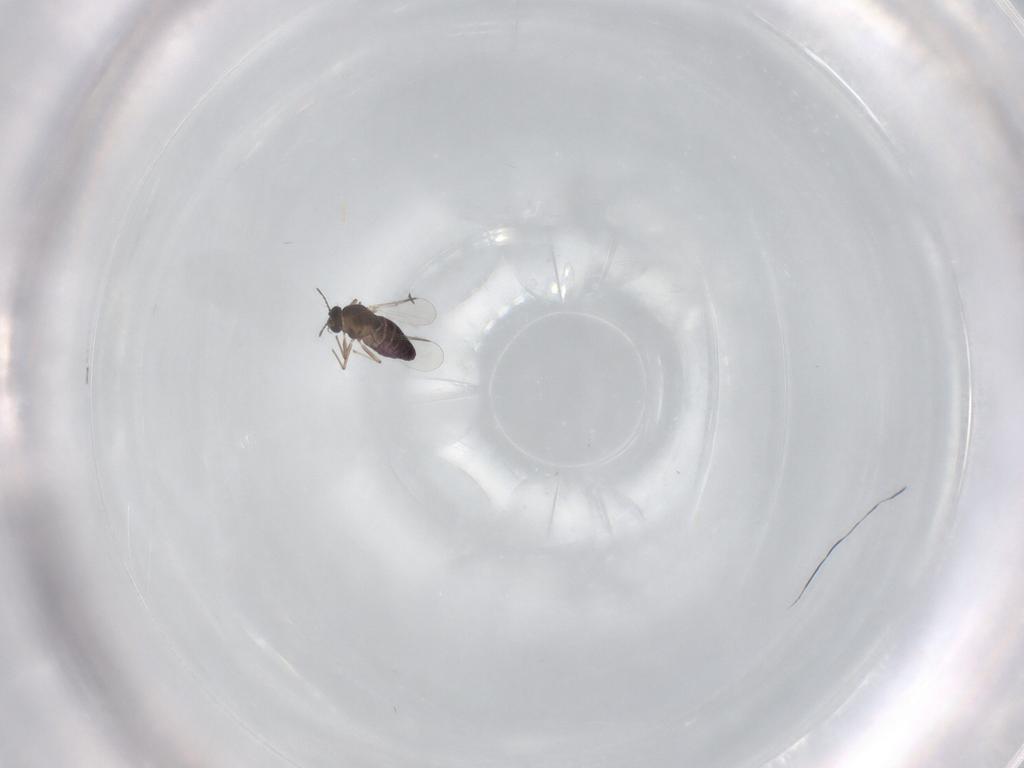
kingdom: Animalia
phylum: Arthropoda
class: Insecta
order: Diptera
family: Chironomidae
